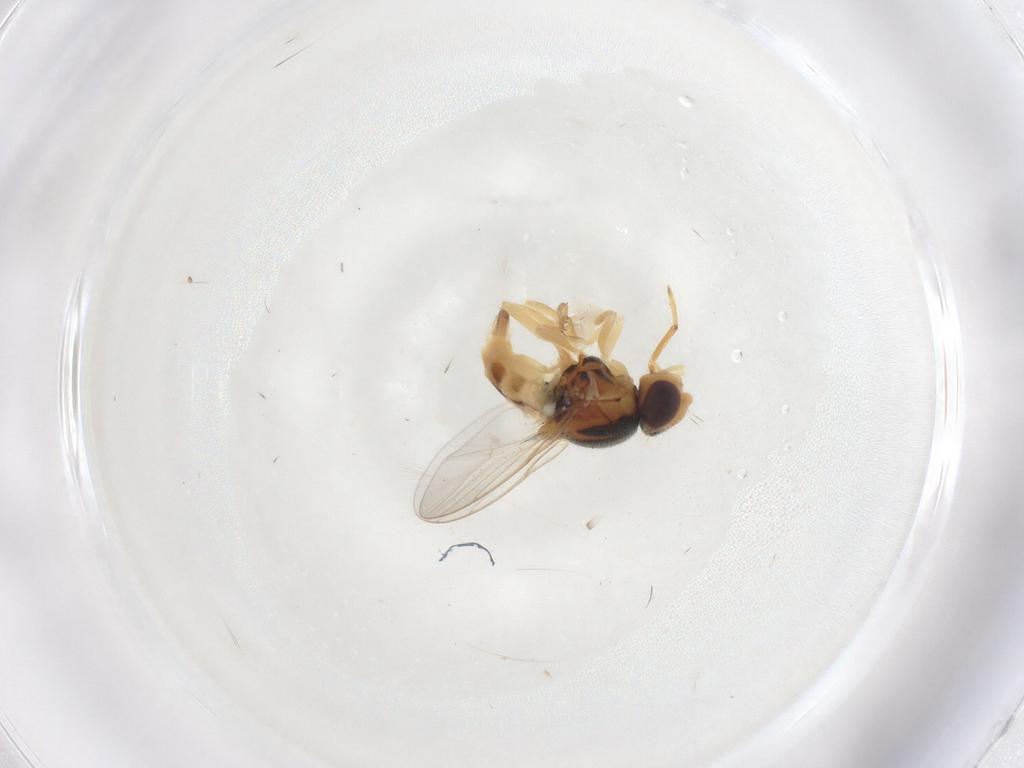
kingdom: Animalia
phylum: Arthropoda
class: Insecta
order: Diptera
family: Chloropidae
